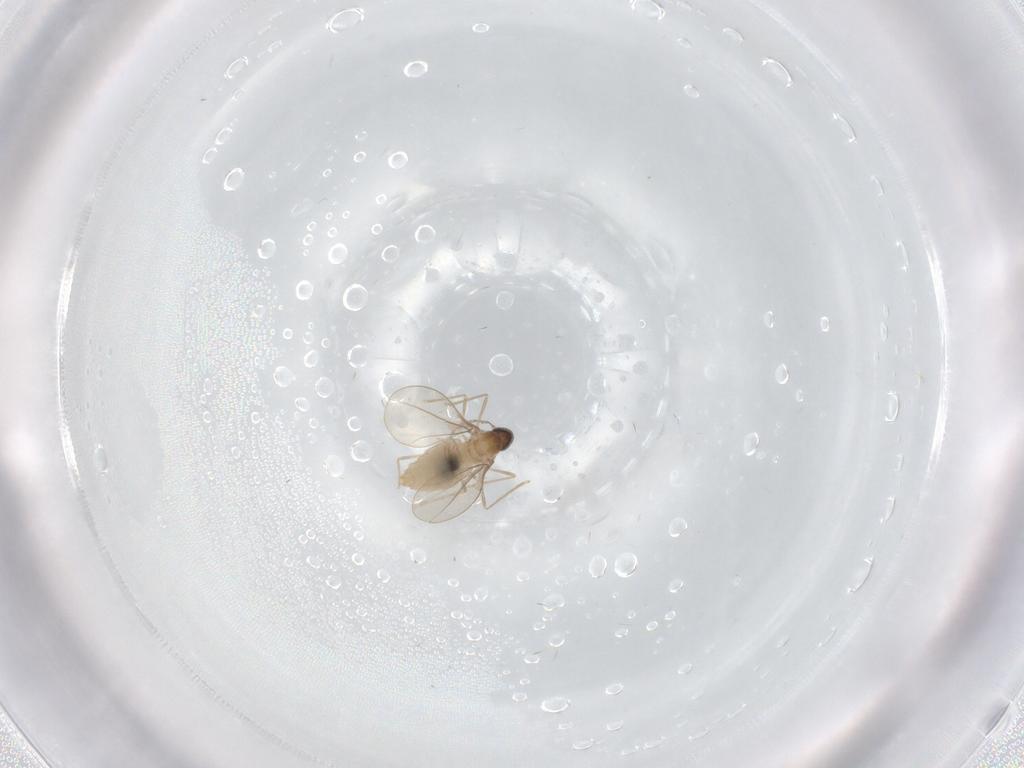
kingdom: Animalia
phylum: Arthropoda
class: Insecta
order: Diptera
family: Cecidomyiidae
